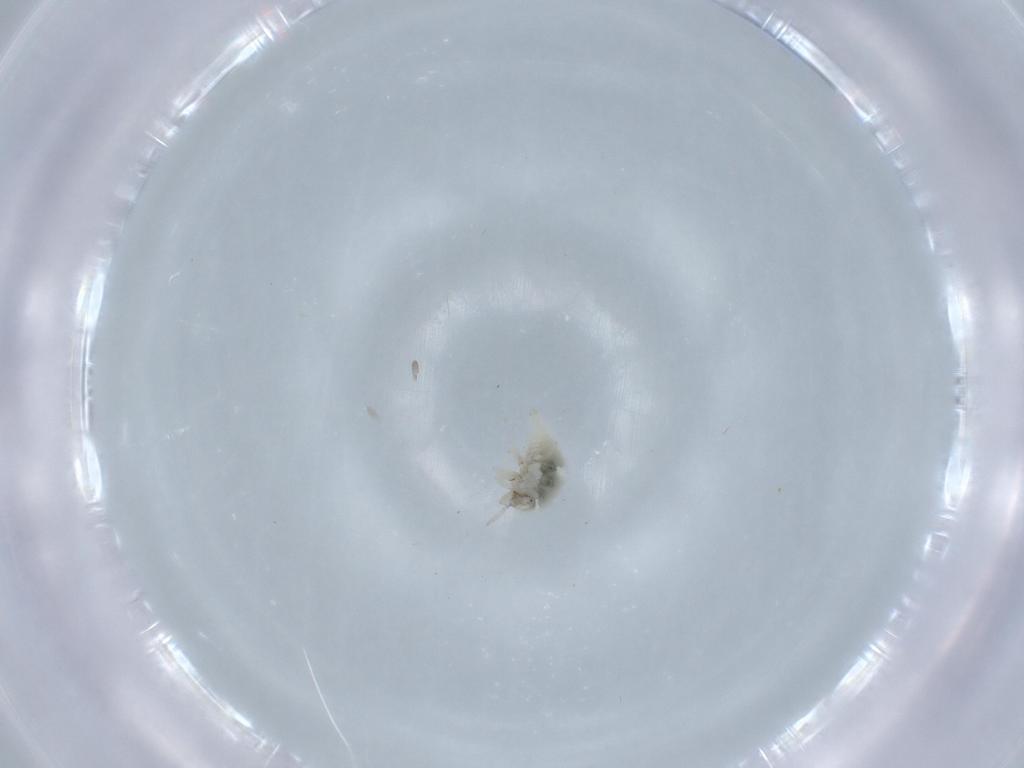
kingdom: Animalia
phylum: Arthropoda
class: Insecta
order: Neuroptera
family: Coniopterygidae
